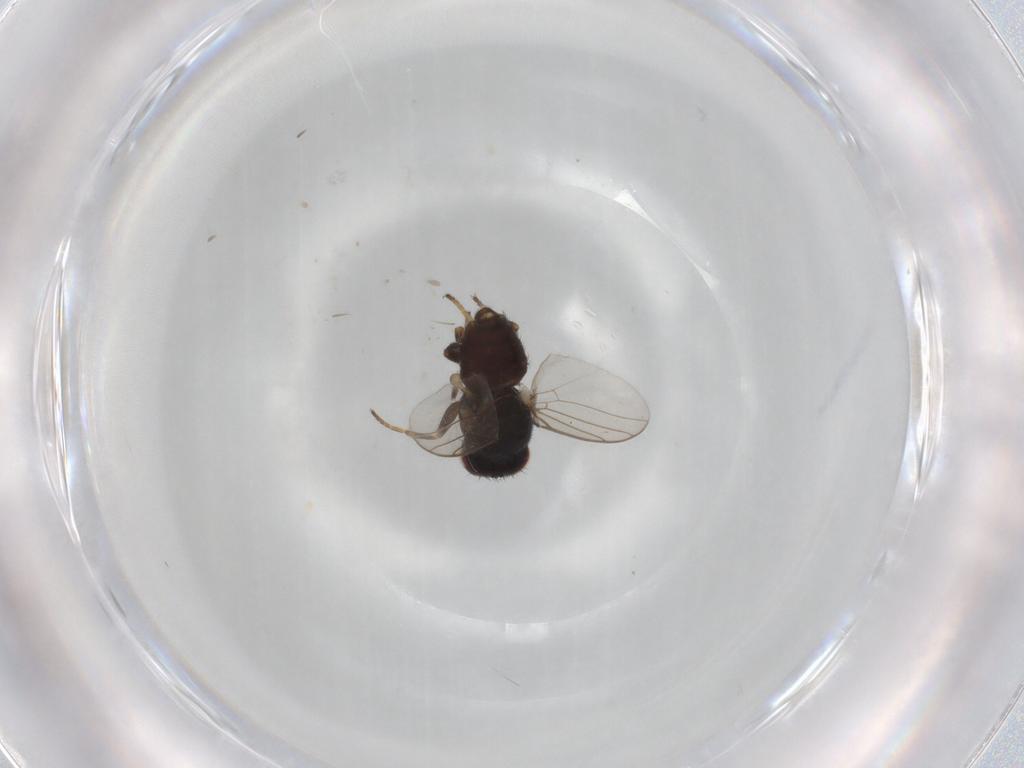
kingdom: Animalia
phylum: Arthropoda
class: Insecta
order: Diptera
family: Chloropidae
